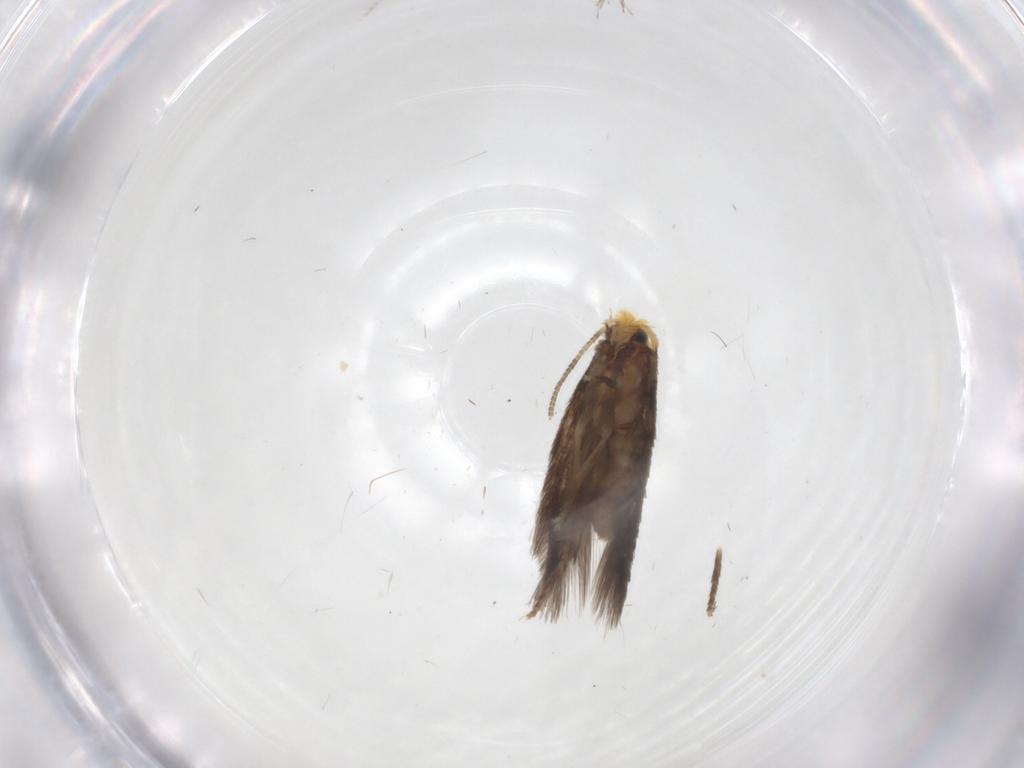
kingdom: Animalia
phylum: Arthropoda
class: Insecta
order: Lepidoptera
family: Nepticulidae
